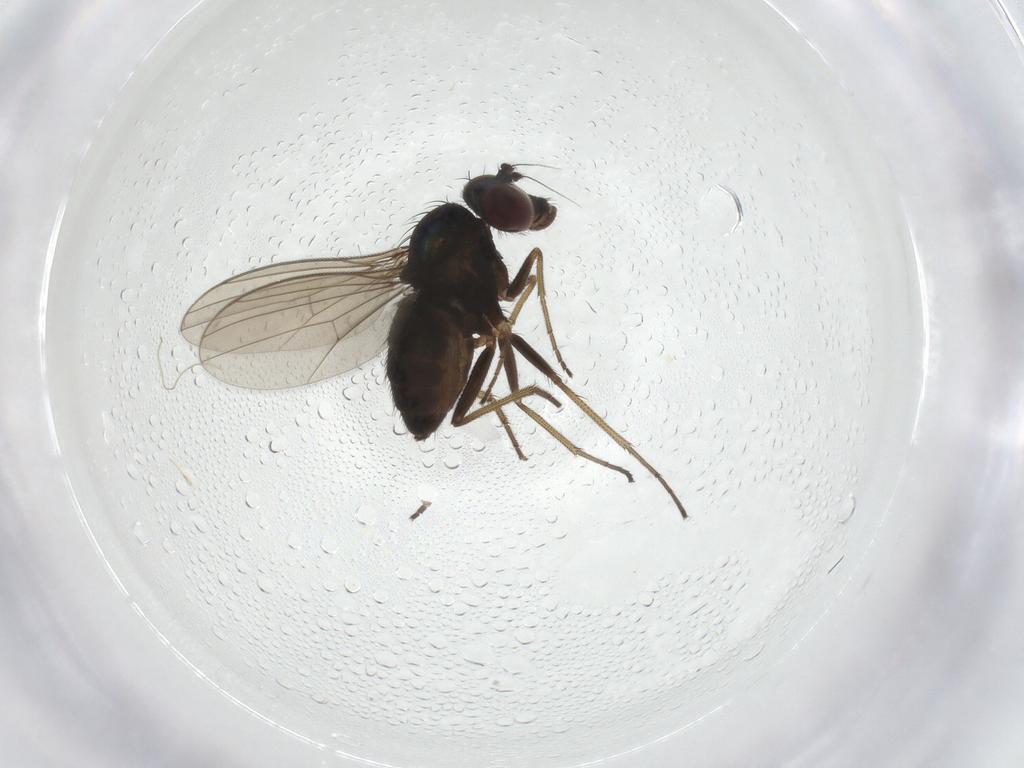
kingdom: Animalia
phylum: Arthropoda
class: Insecta
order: Diptera
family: Dolichopodidae
